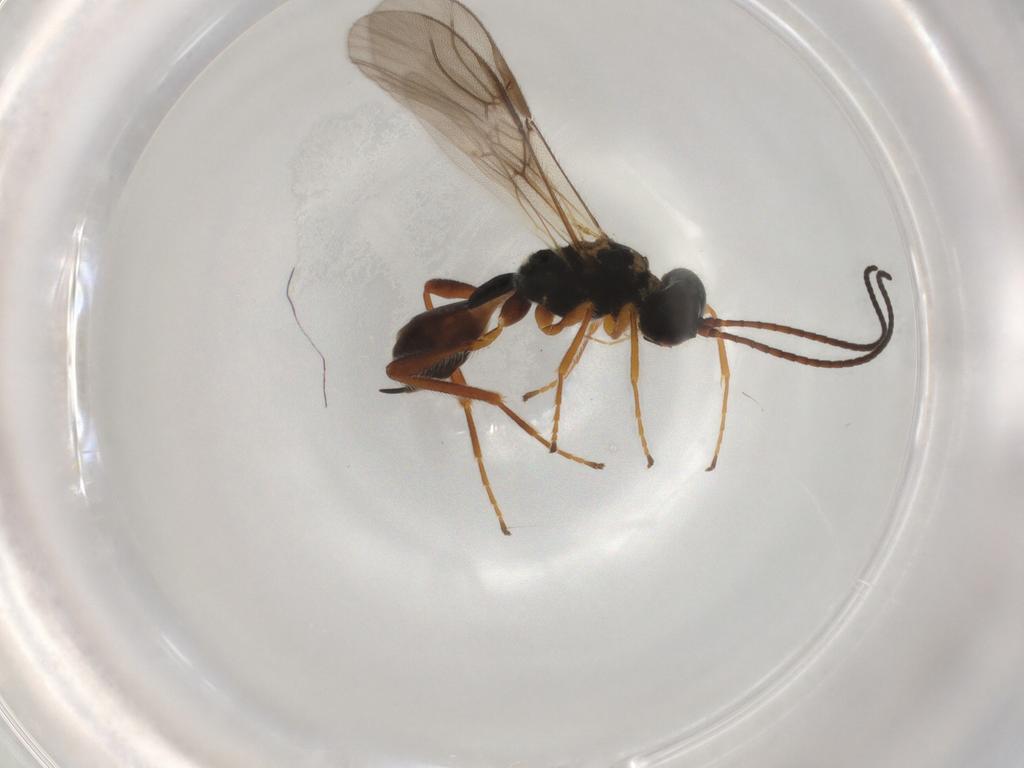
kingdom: Animalia
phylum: Arthropoda
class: Insecta
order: Hymenoptera
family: Braconidae
